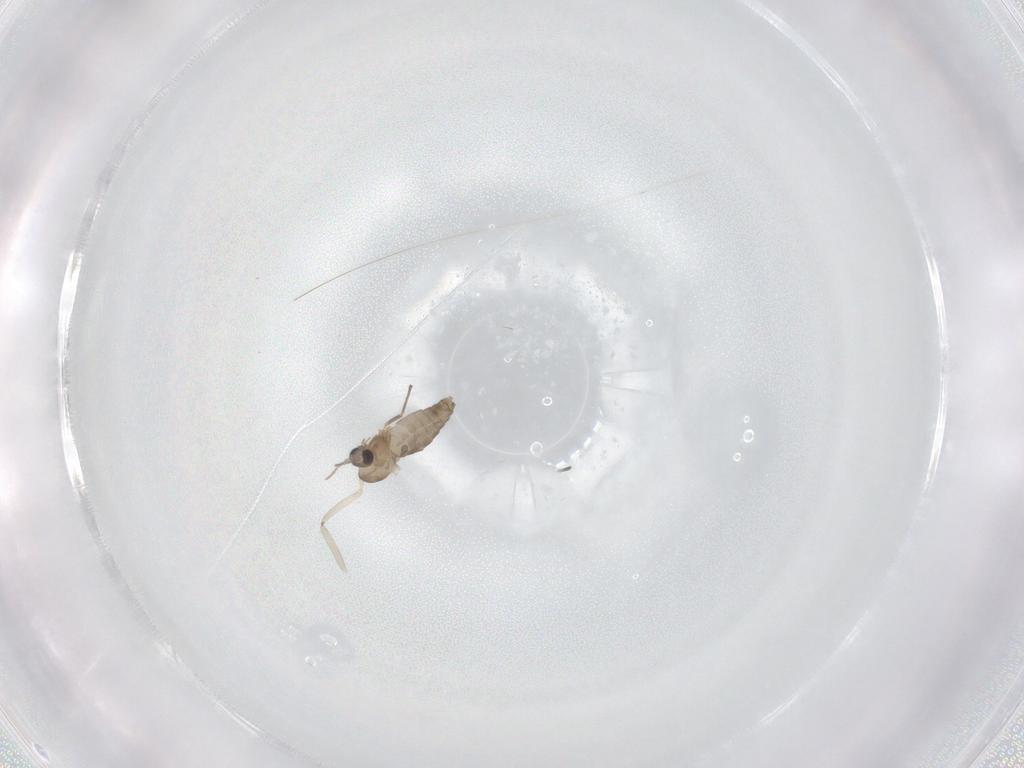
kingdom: Animalia
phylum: Arthropoda
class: Insecta
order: Diptera
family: Chironomidae
